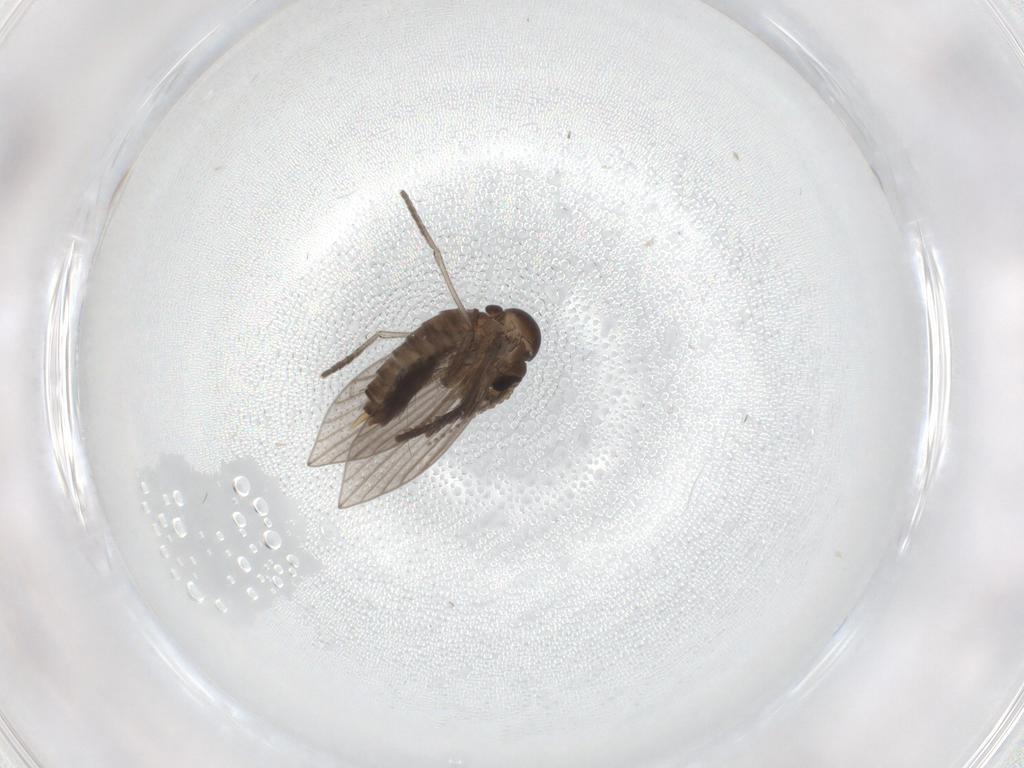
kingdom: Animalia
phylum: Arthropoda
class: Insecta
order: Diptera
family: Psychodidae
